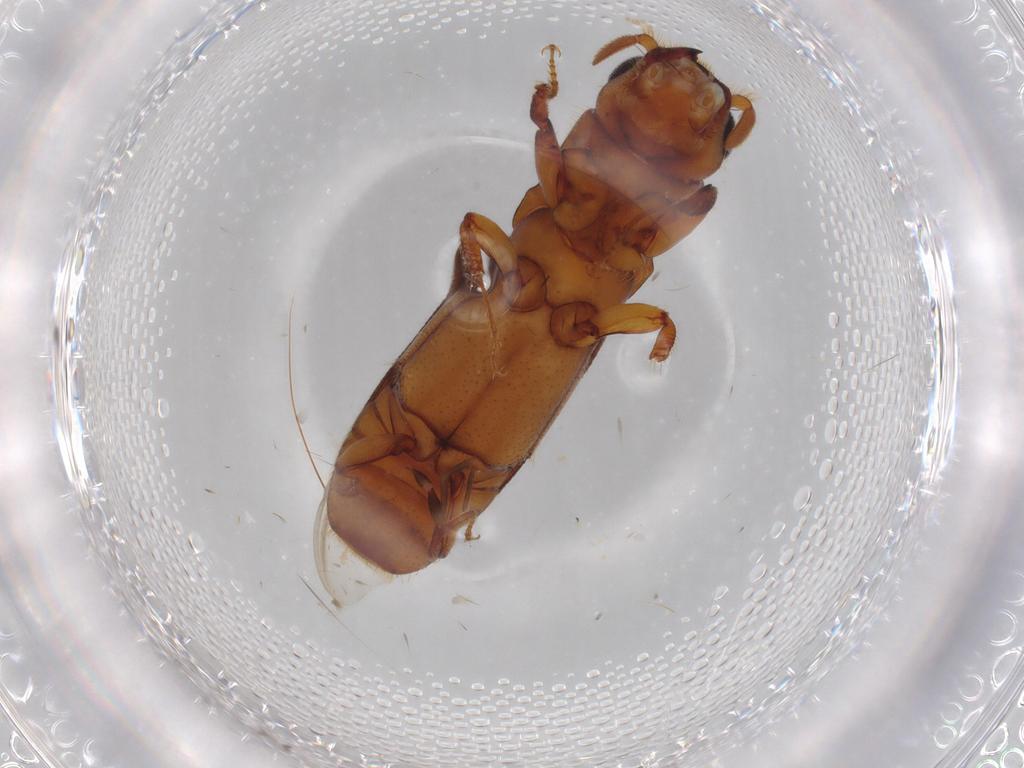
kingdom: Animalia
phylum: Arthropoda
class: Insecta
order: Coleoptera
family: Curculionidae
